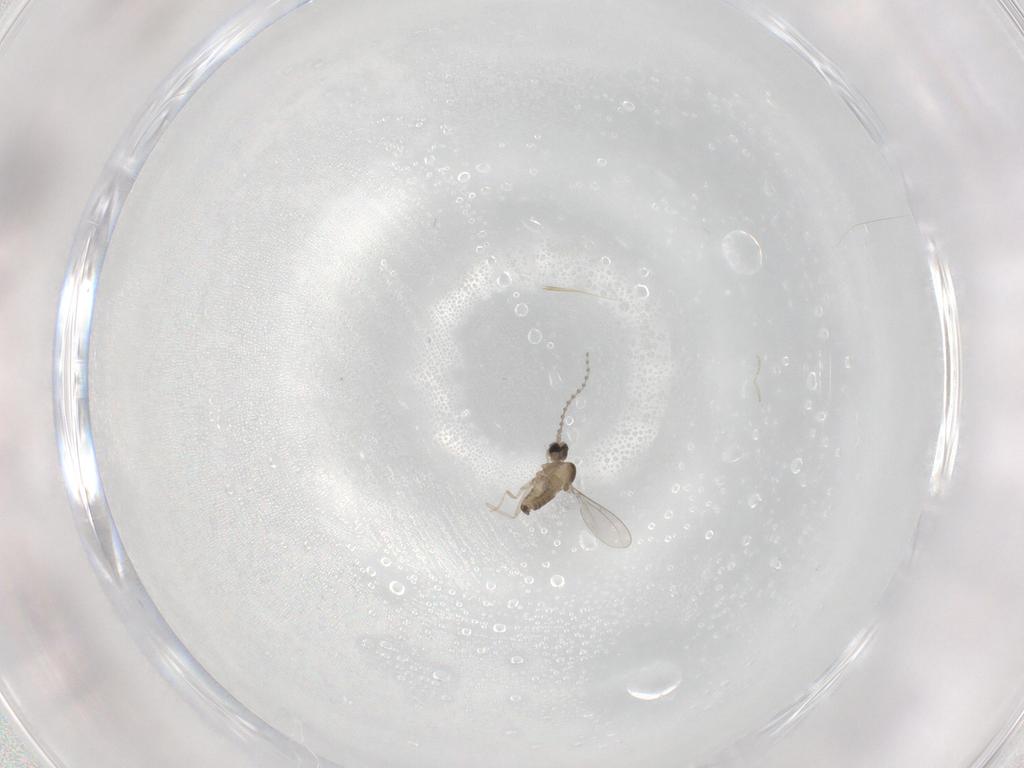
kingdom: Animalia
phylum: Arthropoda
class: Insecta
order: Diptera
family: Cecidomyiidae
